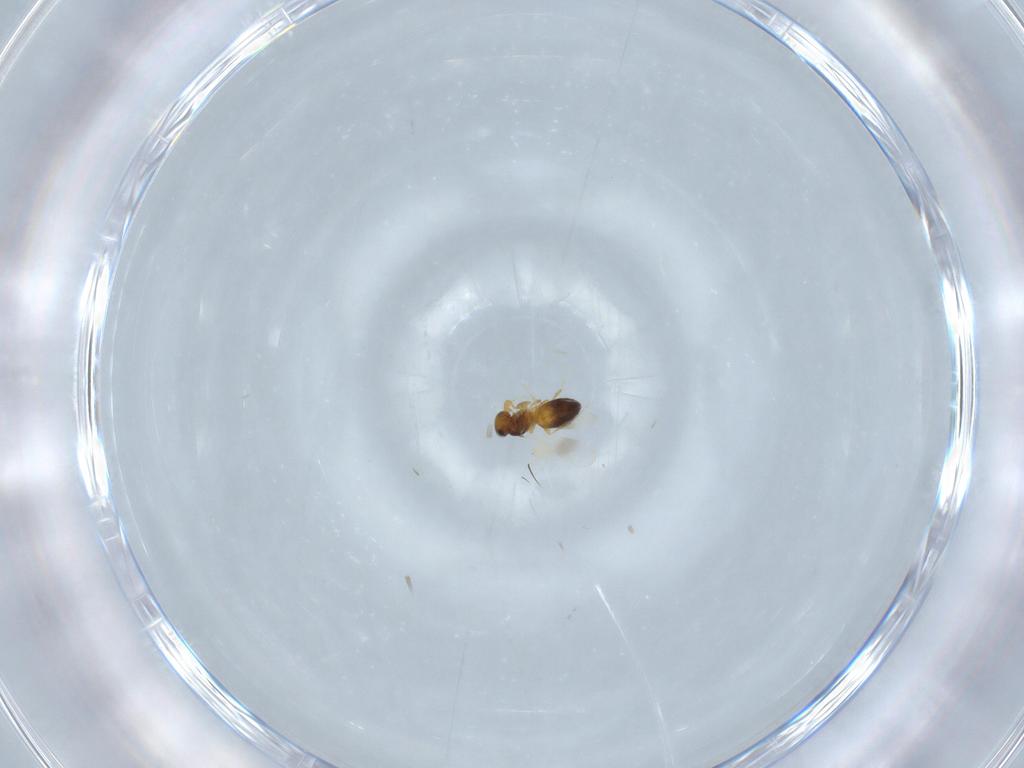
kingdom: Animalia
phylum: Arthropoda
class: Insecta
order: Hymenoptera
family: Platygastridae
